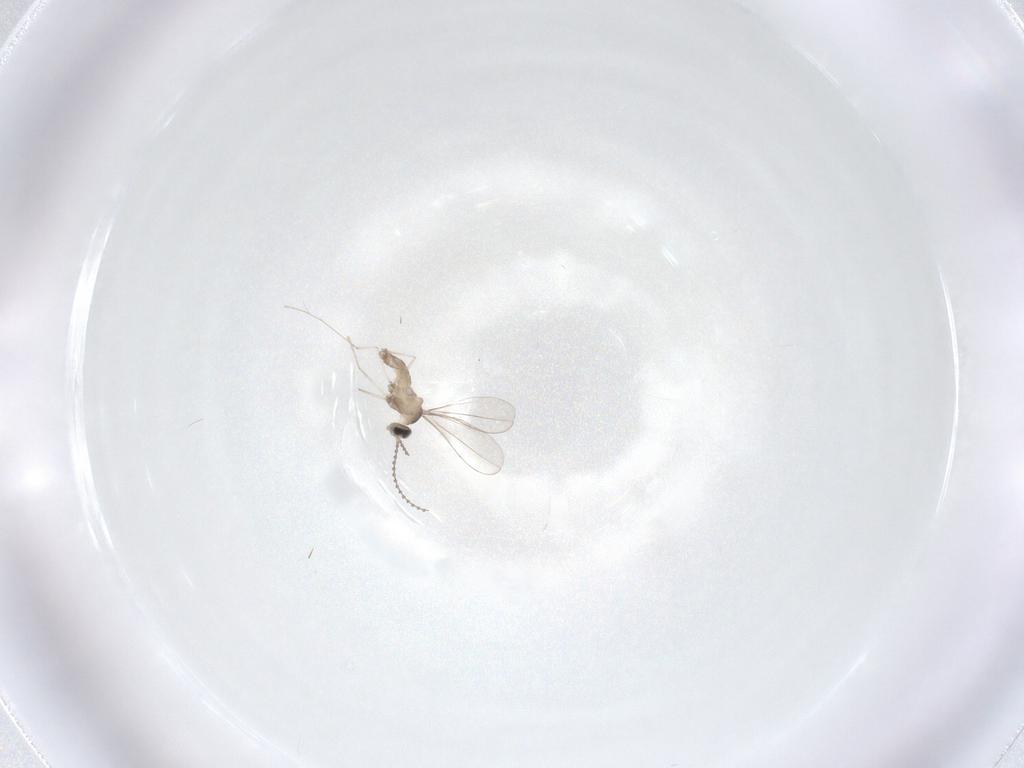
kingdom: Animalia
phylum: Arthropoda
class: Insecta
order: Diptera
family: Cecidomyiidae
